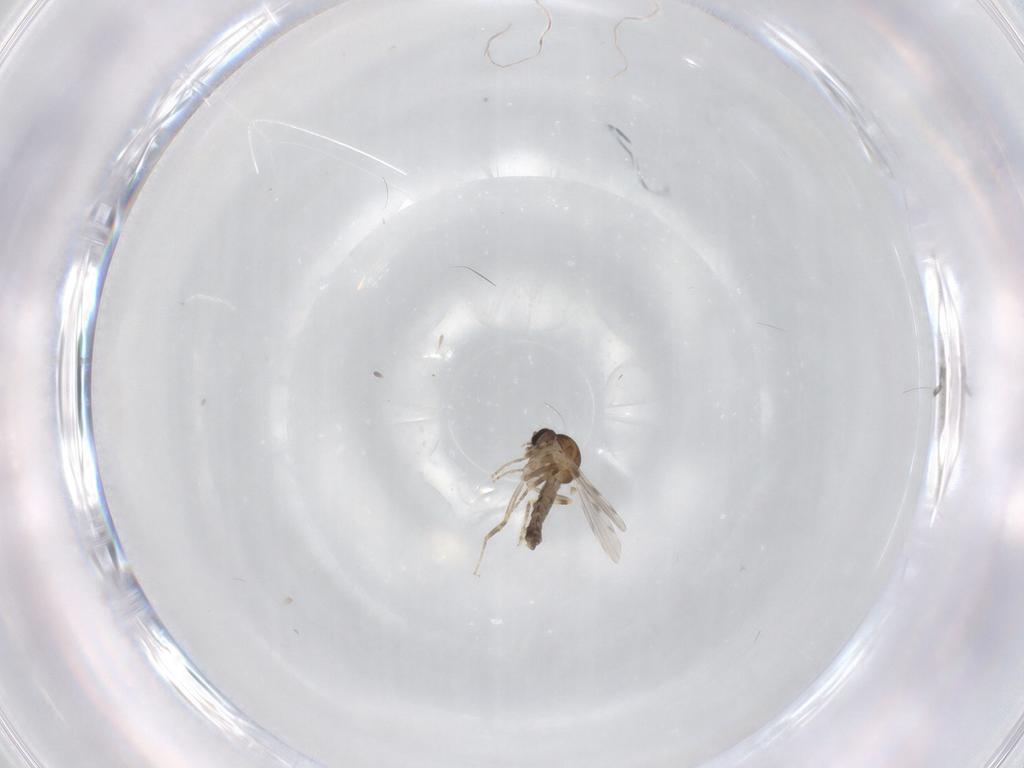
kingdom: Animalia
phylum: Arthropoda
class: Insecta
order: Diptera
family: Ceratopogonidae
